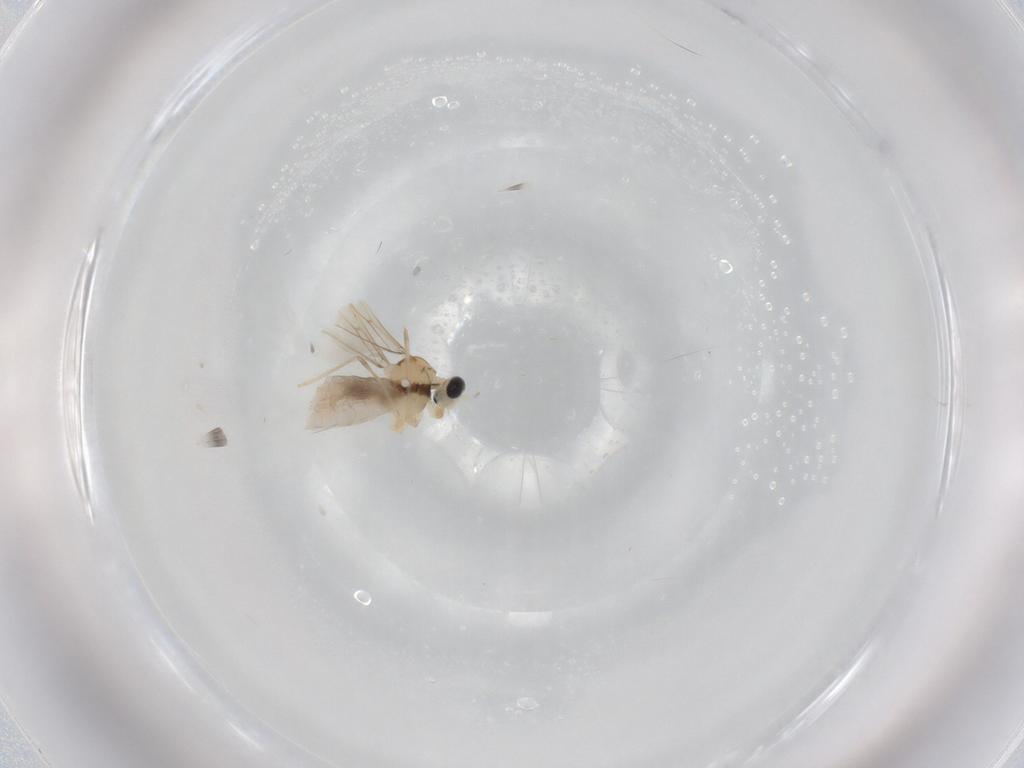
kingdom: Animalia
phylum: Arthropoda
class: Insecta
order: Diptera
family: Cecidomyiidae
